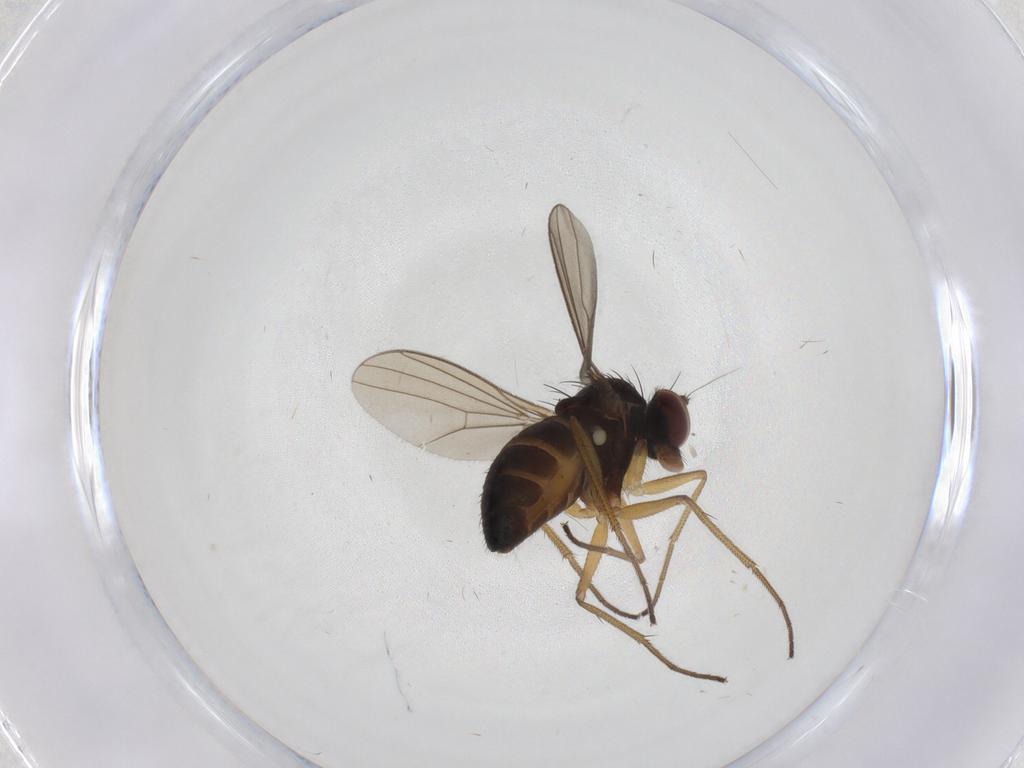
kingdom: Animalia
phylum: Arthropoda
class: Insecta
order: Diptera
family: Dolichopodidae
